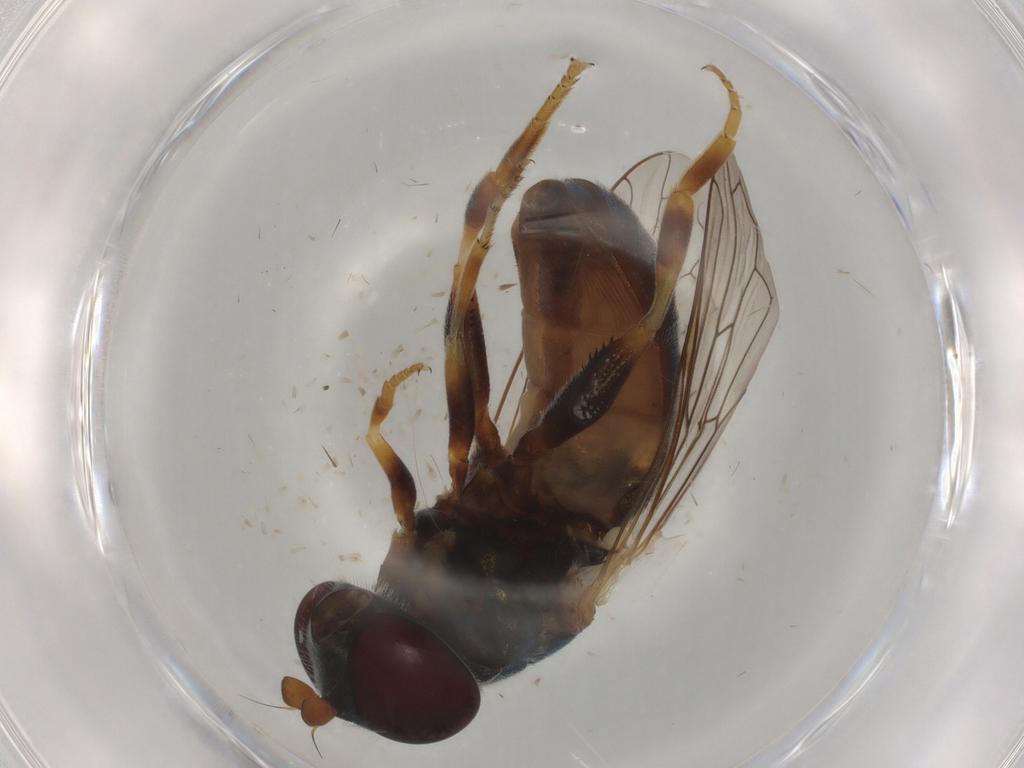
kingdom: Animalia
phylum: Arthropoda
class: Insecta
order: Diptera
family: Syrphidae
